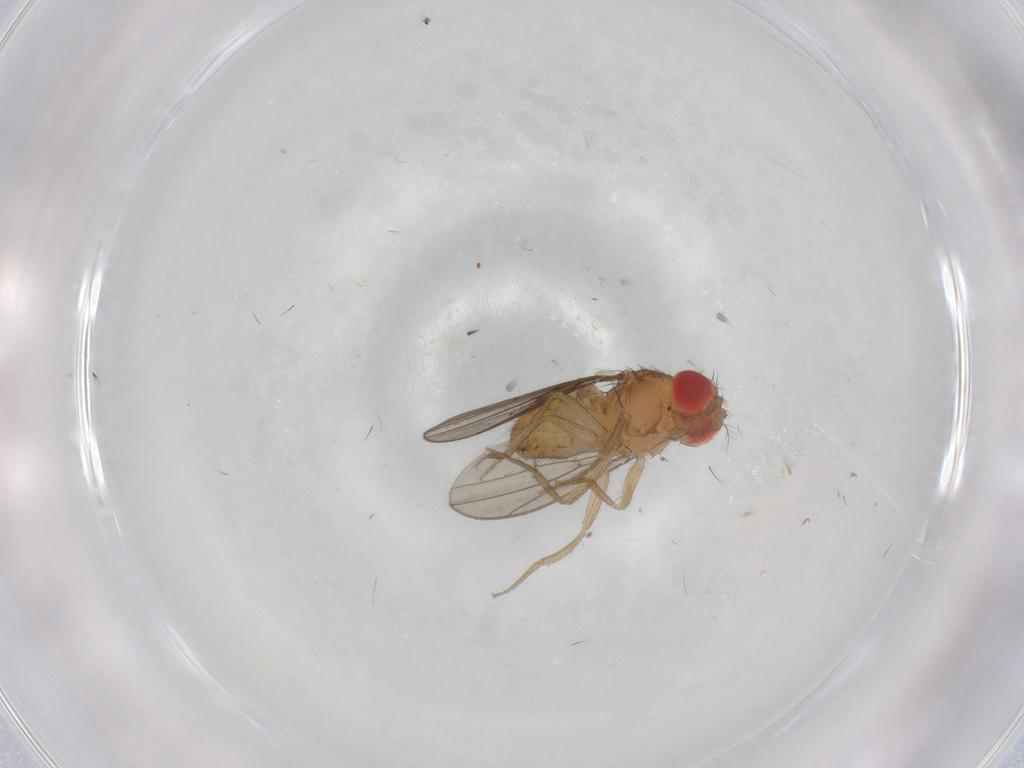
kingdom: Animalia
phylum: Arthropoda
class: Insecta
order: Diptera
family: Drosophilidae
